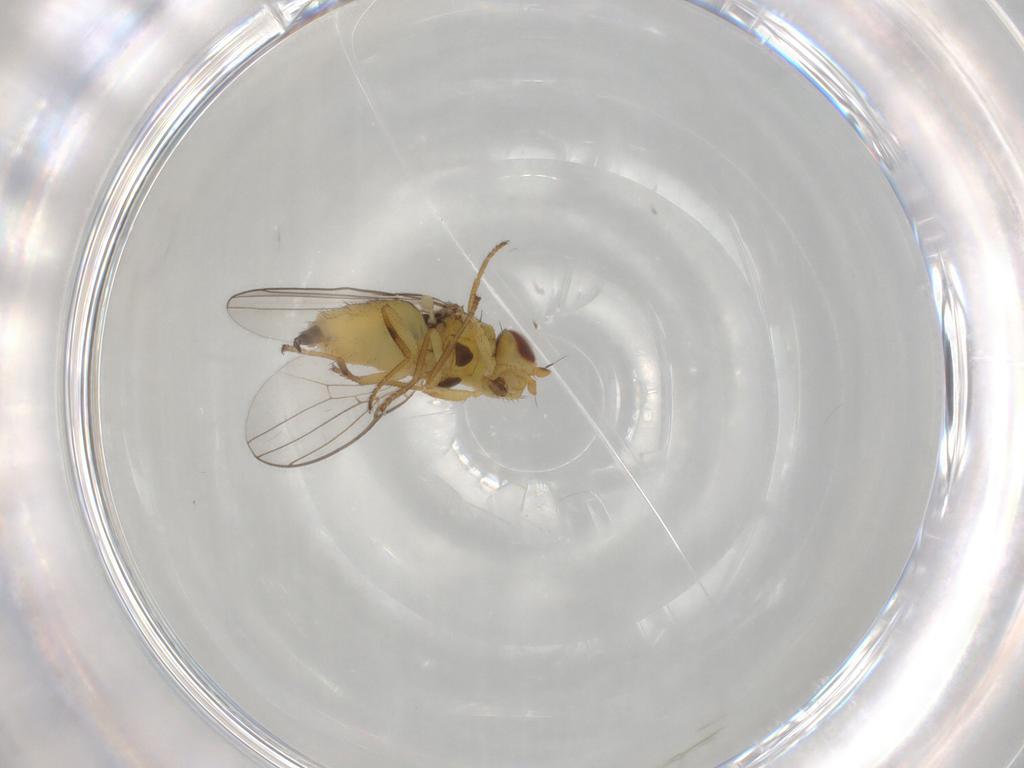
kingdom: Animalia
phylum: Arthropoda
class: Insecta
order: Diptera
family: Chloropidae
